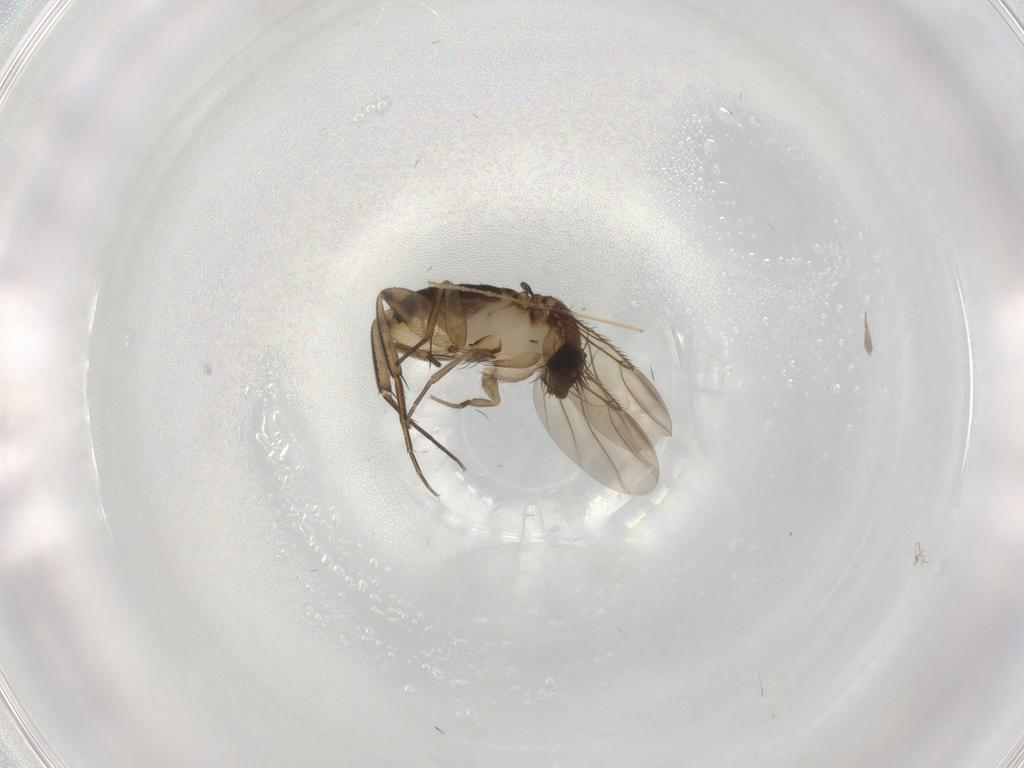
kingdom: Animalia
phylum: Arthropoda
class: Insecta
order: Diptera
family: Phoridae
